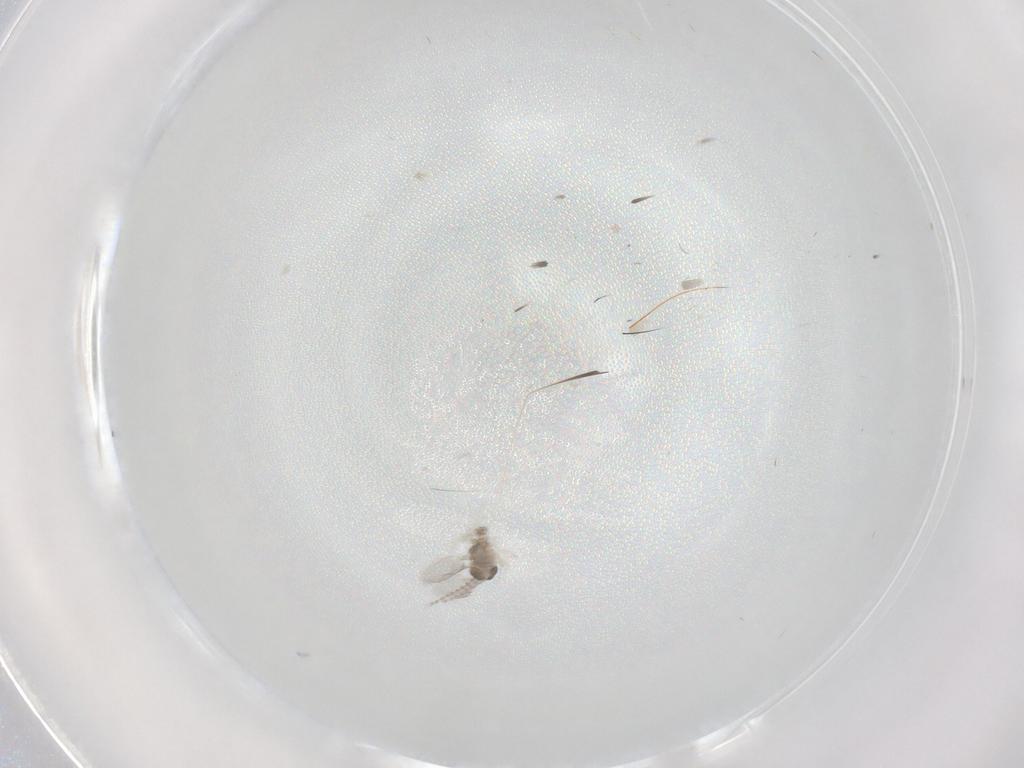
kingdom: Animalia
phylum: Arthropoda
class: Insecta
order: Diptera
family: Cecidomyiidae
